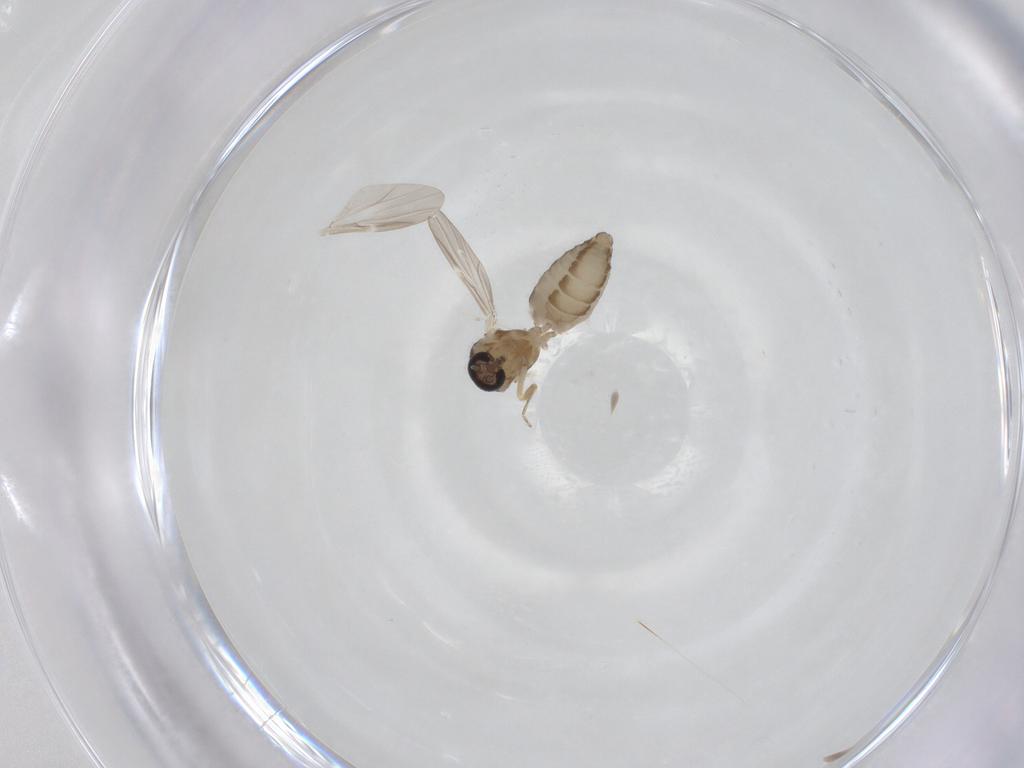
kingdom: Animalia
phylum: Arthropoda
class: Insecta
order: Diptera
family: Ceratopogonidae
